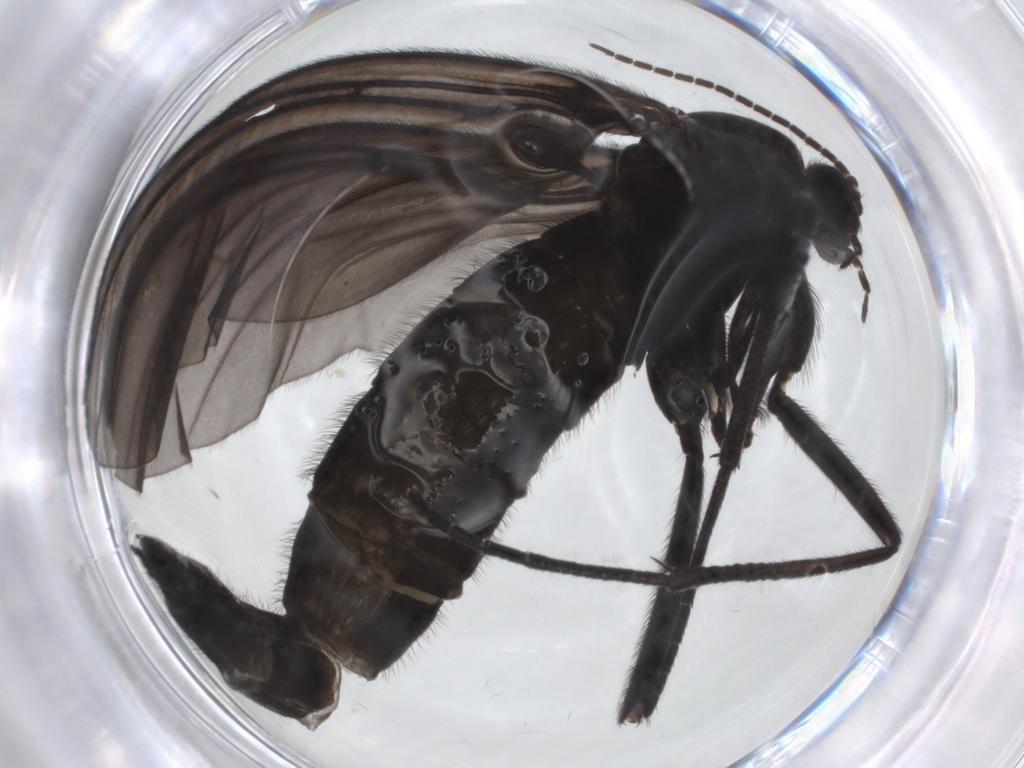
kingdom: Animalia
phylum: Arthropoda
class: Insecta
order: Diptera
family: Sciaridae
